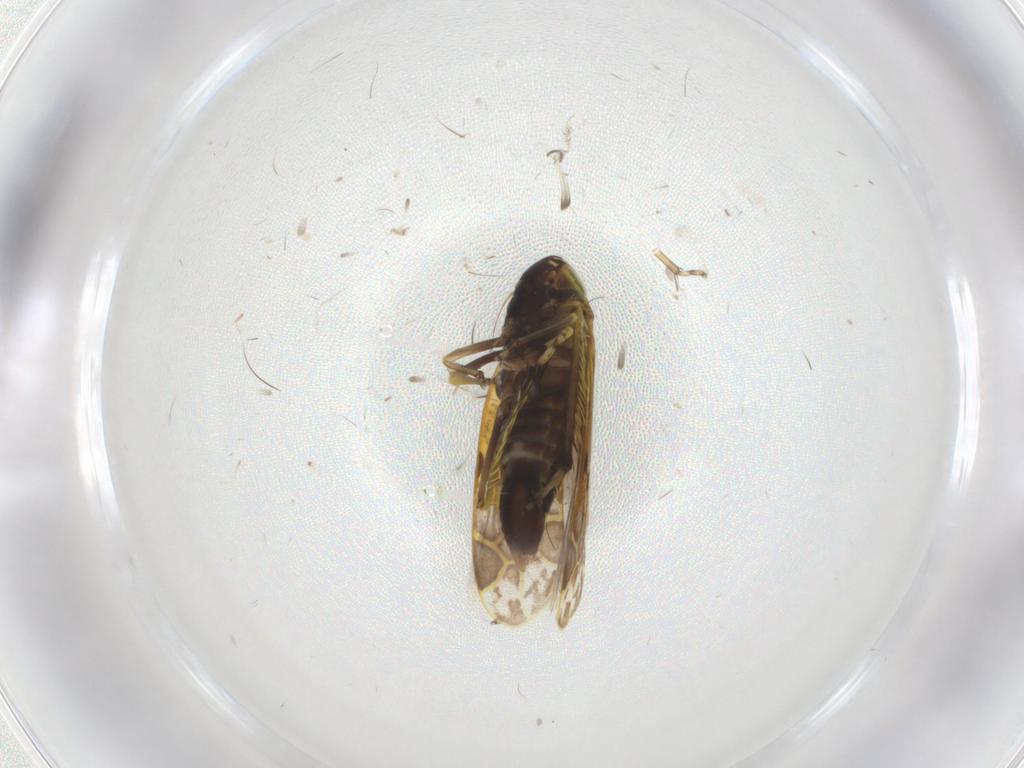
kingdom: Animalia
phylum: Arthropoda
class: Insecta
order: Hemiptera
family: Cicadellidae
